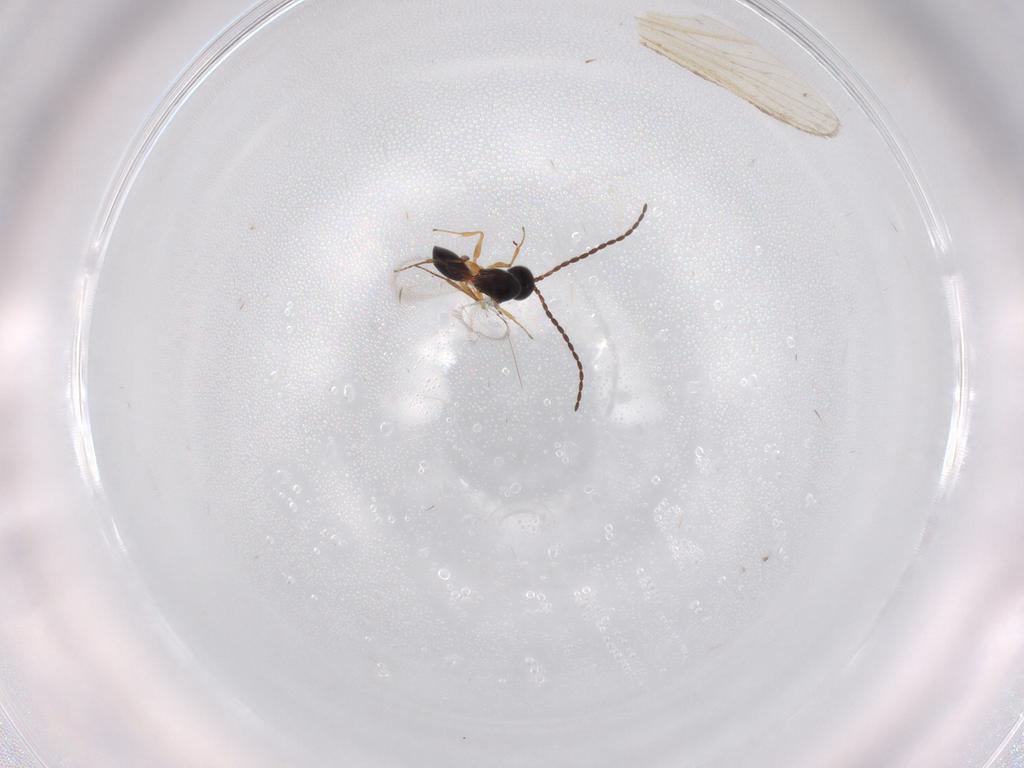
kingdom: Animalia
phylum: Arthropoda
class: Insecta
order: Hymenoptera
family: Figitidae
